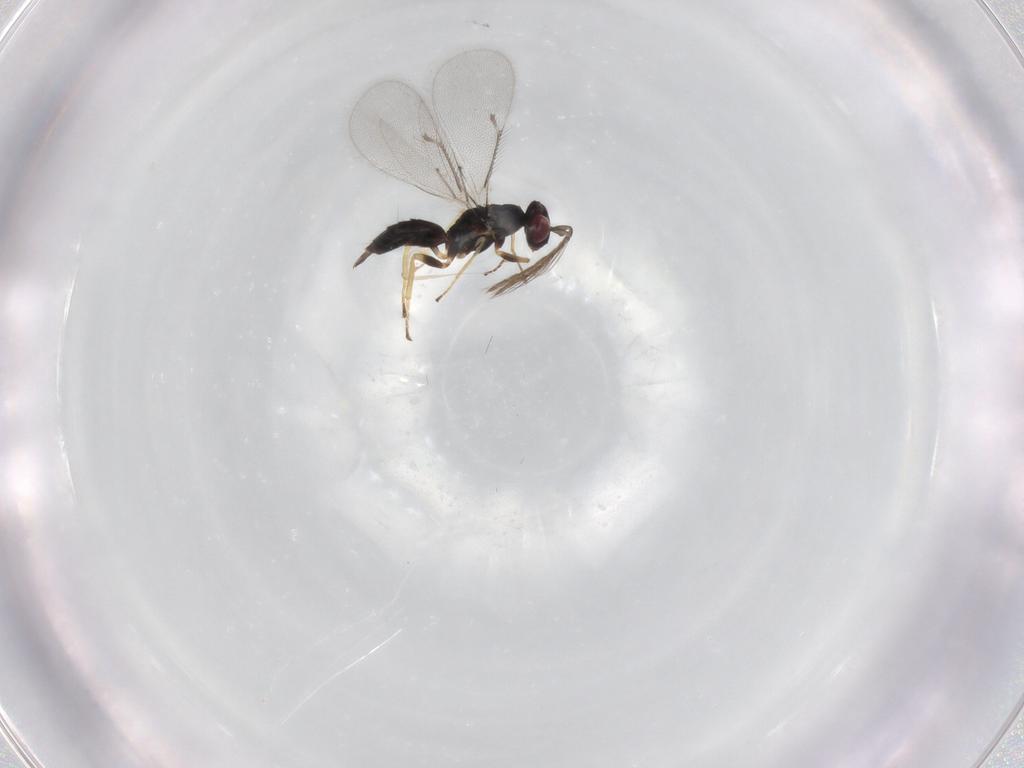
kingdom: Animalia
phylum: Arthropoda
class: Insecta
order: Hymenoptera
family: Eulophidae
